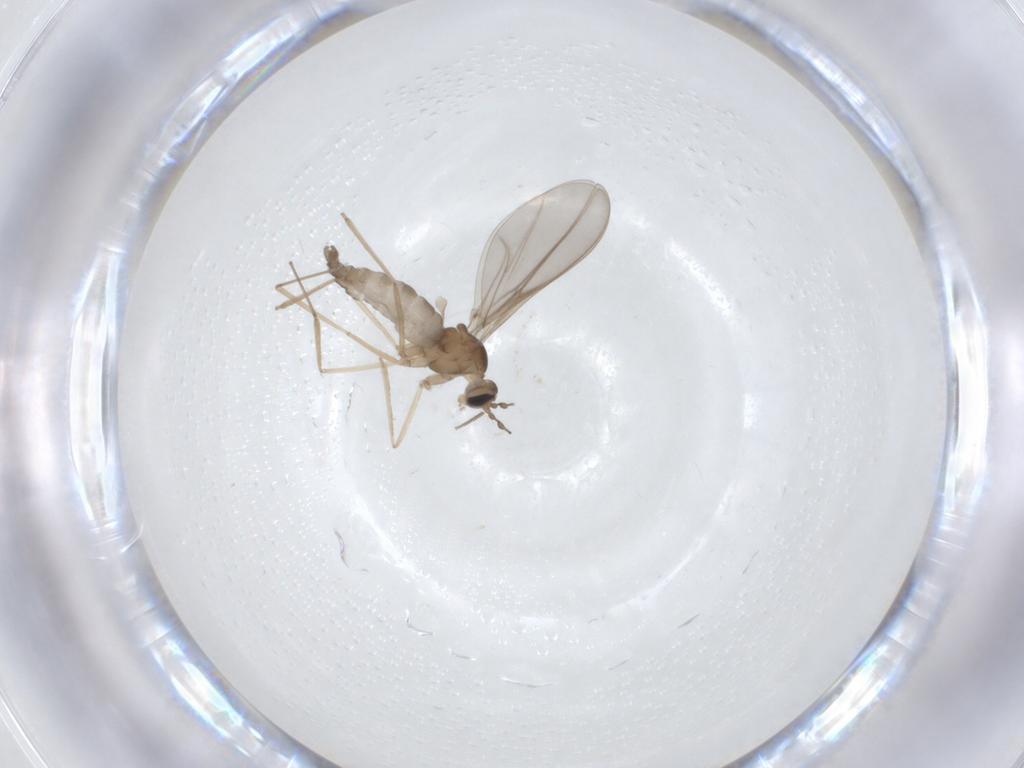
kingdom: Animalia
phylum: Arthropoda
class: Insecta
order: Diptera
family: Cecidomyiidae
